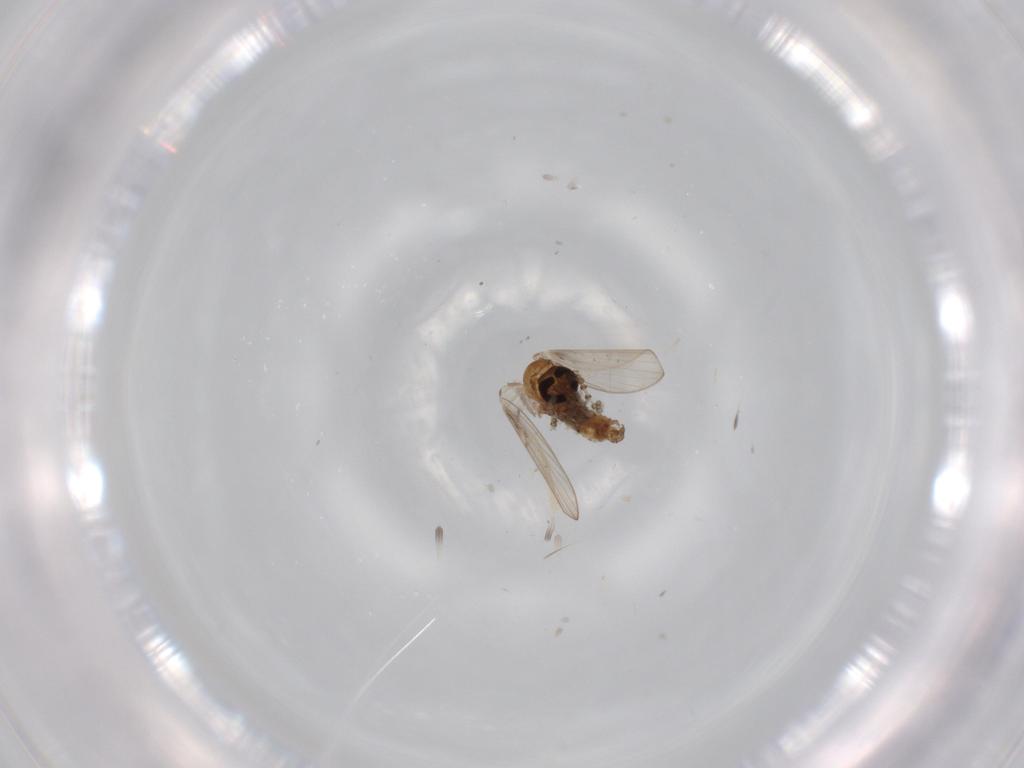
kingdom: Animalia
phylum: Arthropoda
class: Insecta
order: Diptera
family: Psychodidae
